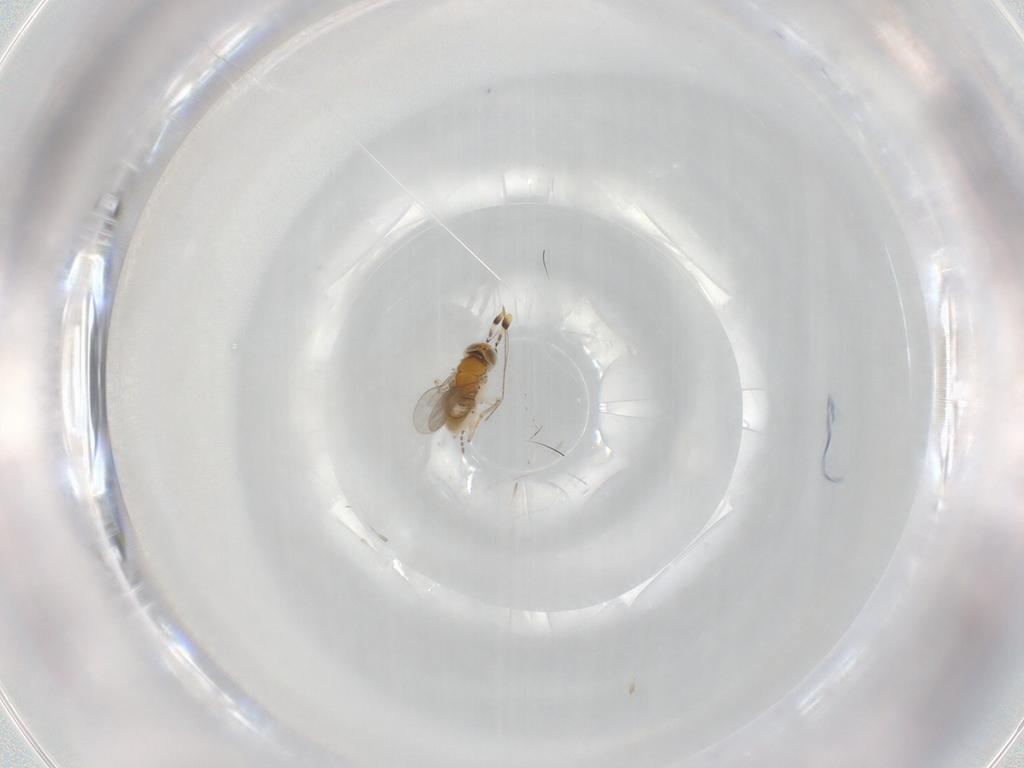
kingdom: Animalia
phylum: Arthropoda
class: Insecta
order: Hymenoptera
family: Encyrtidae
